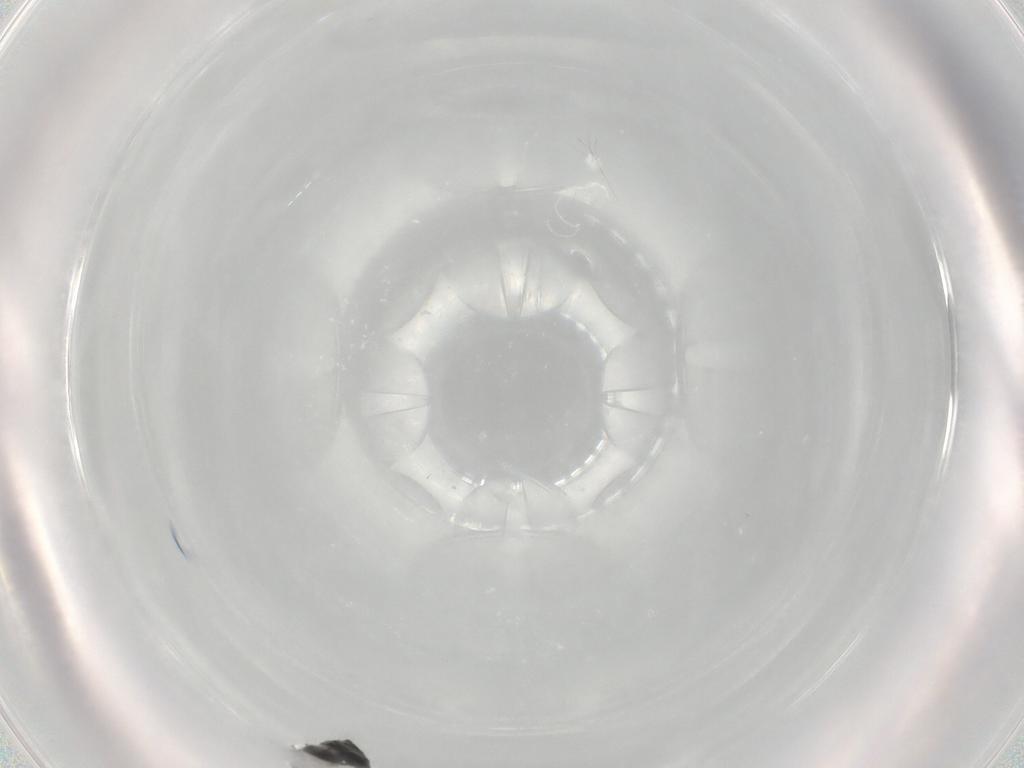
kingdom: Animalia
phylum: Arthropoda
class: Insecta
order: Hymenoptera
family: Scelionidae
